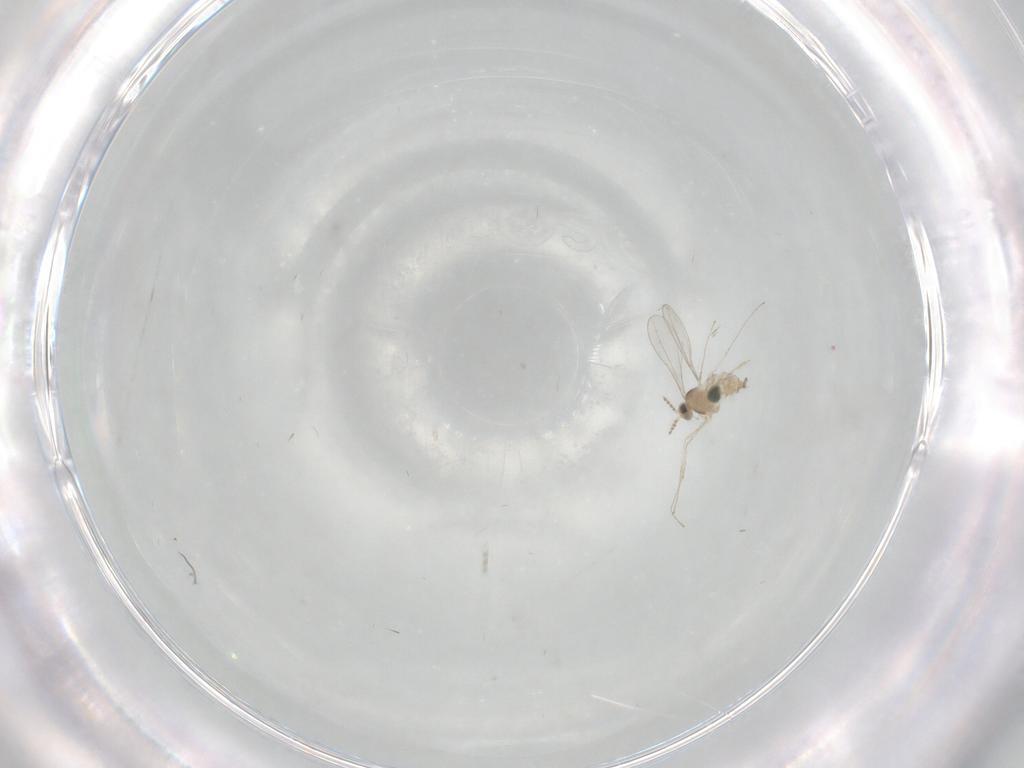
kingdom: Animalia
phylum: Arthropoda
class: Insecta
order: Diptera
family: Cecidomyiidae
